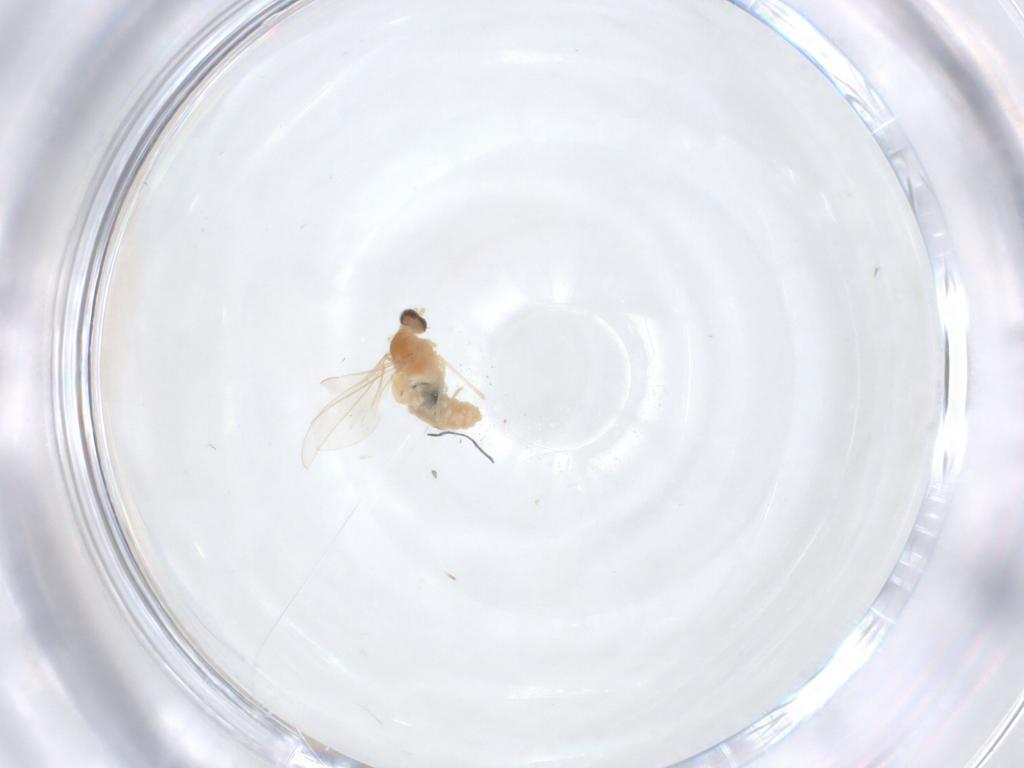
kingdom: Animalia
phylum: Arthropoda
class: Insecta
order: Diptera
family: Cecidomyiidae
